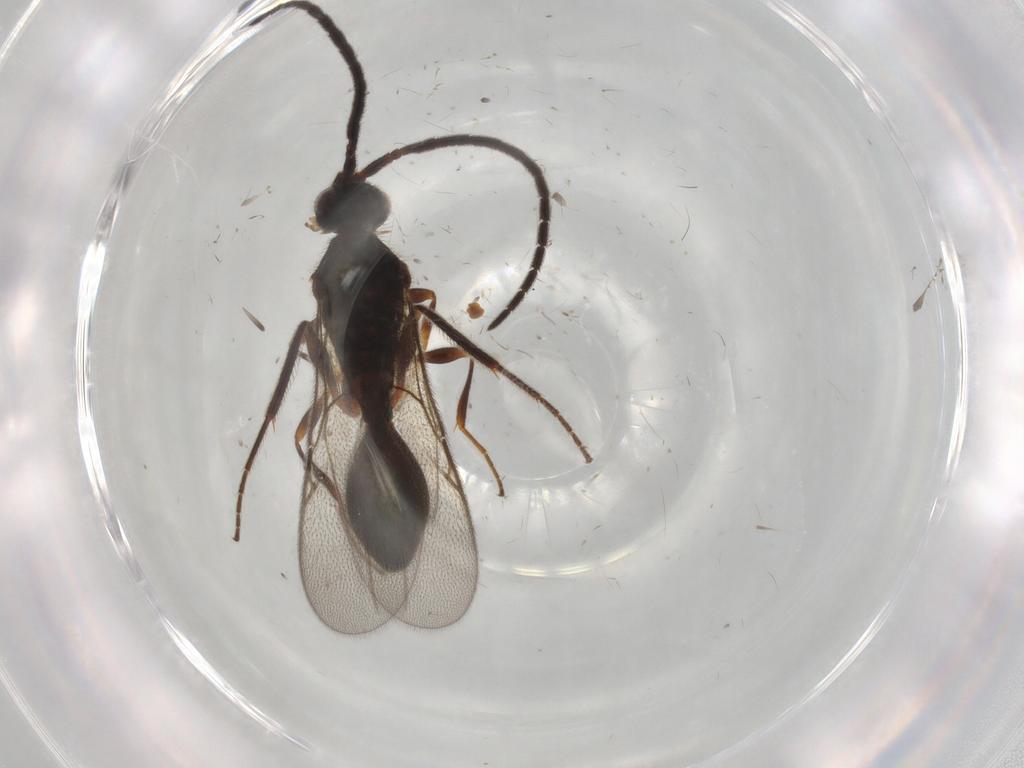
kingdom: Animalia
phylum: Arthropoda
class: Insecta
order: Hymenoptera
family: Diapriidae
